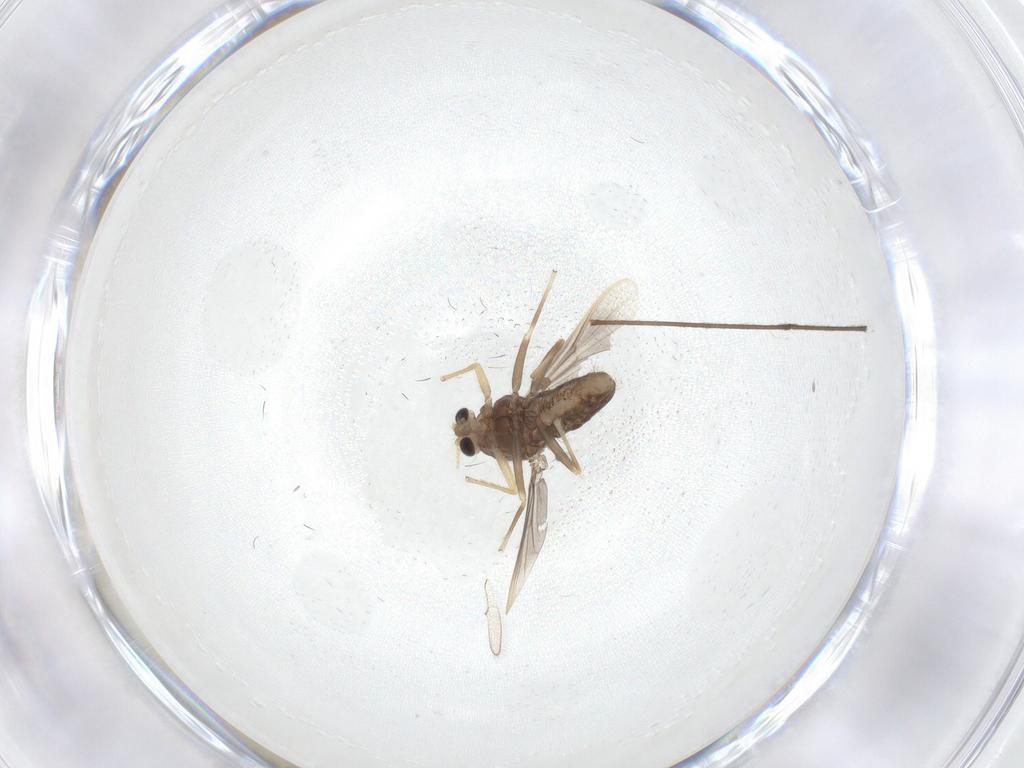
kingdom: Animalia
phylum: Arthropoda
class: Insecta
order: Diptera
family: Chironomidae
